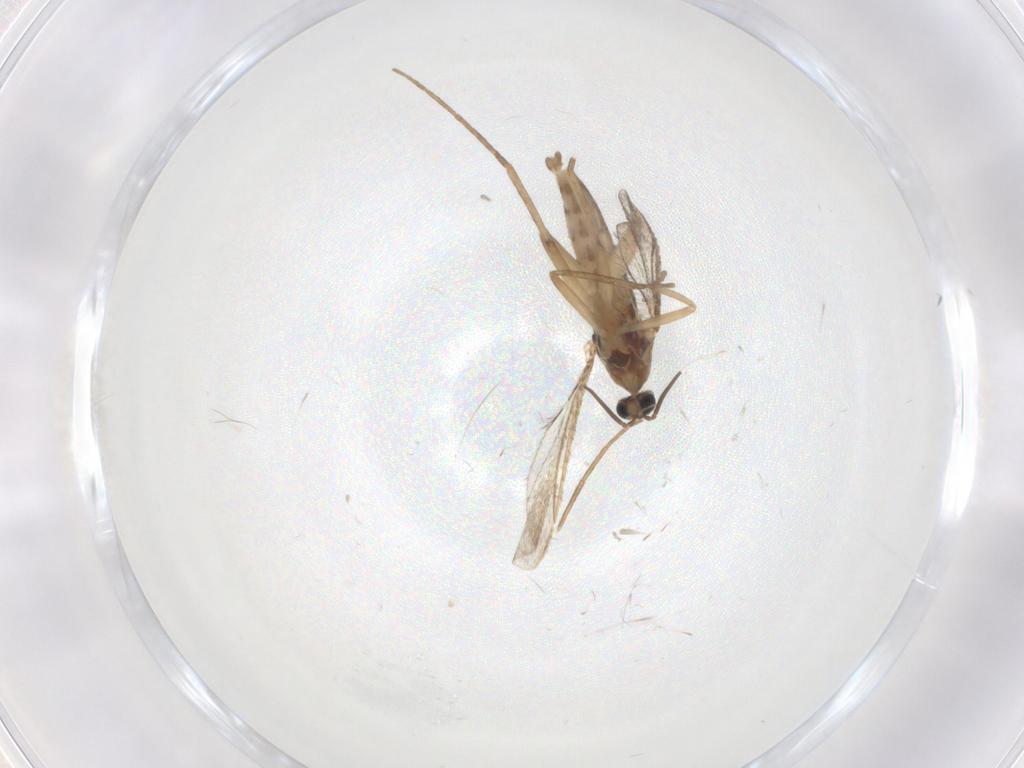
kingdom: Animalia
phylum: Arthropoda
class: Insecta
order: Diptera
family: Cecidomyiidae
